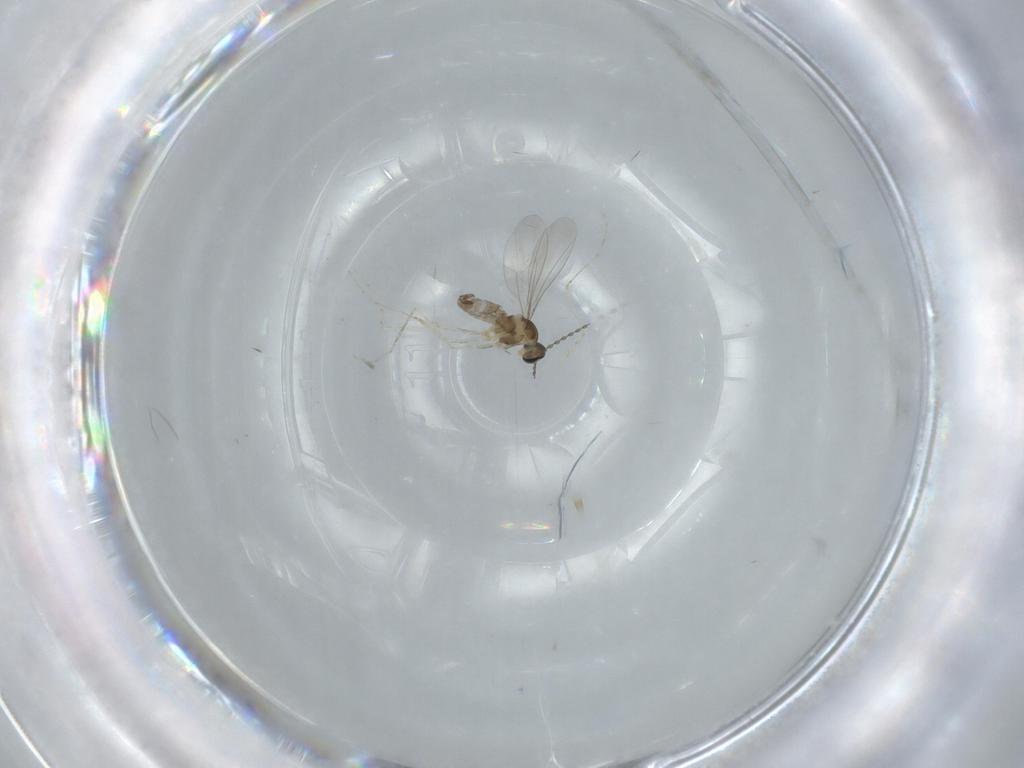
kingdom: Animalia
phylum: Arthropoda
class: Insecta
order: Diptera
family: Cecidomyiidae
